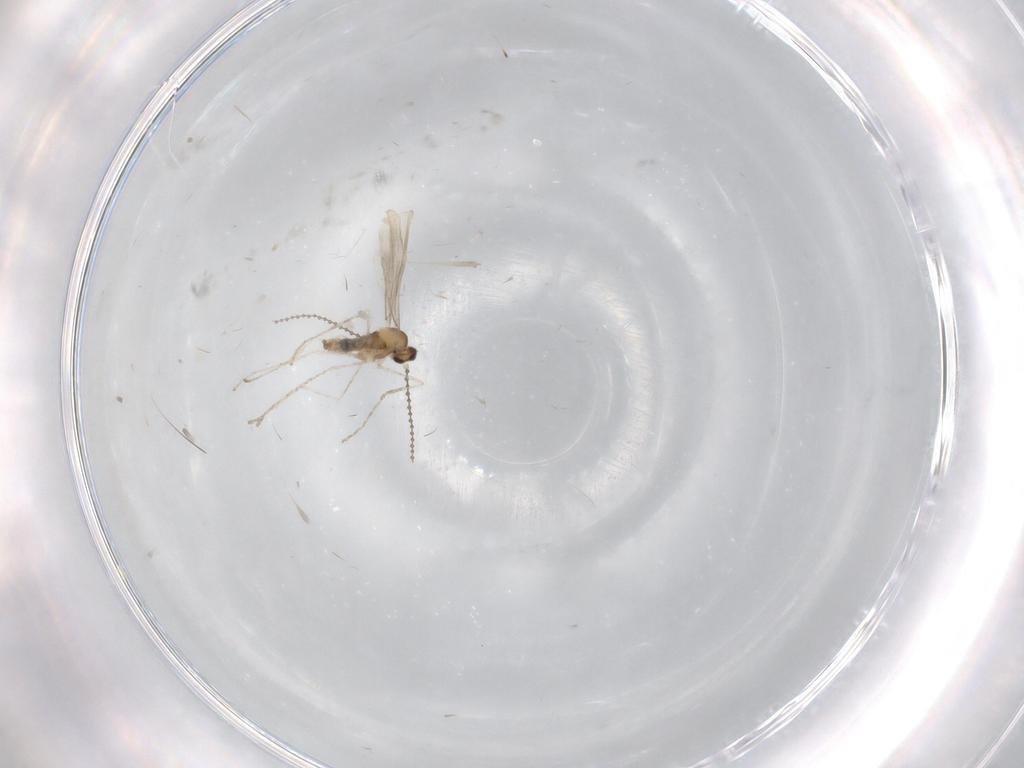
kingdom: Animalia
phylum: Arthropoda
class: Insecta
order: Diptera
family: Cecidomyiidae
